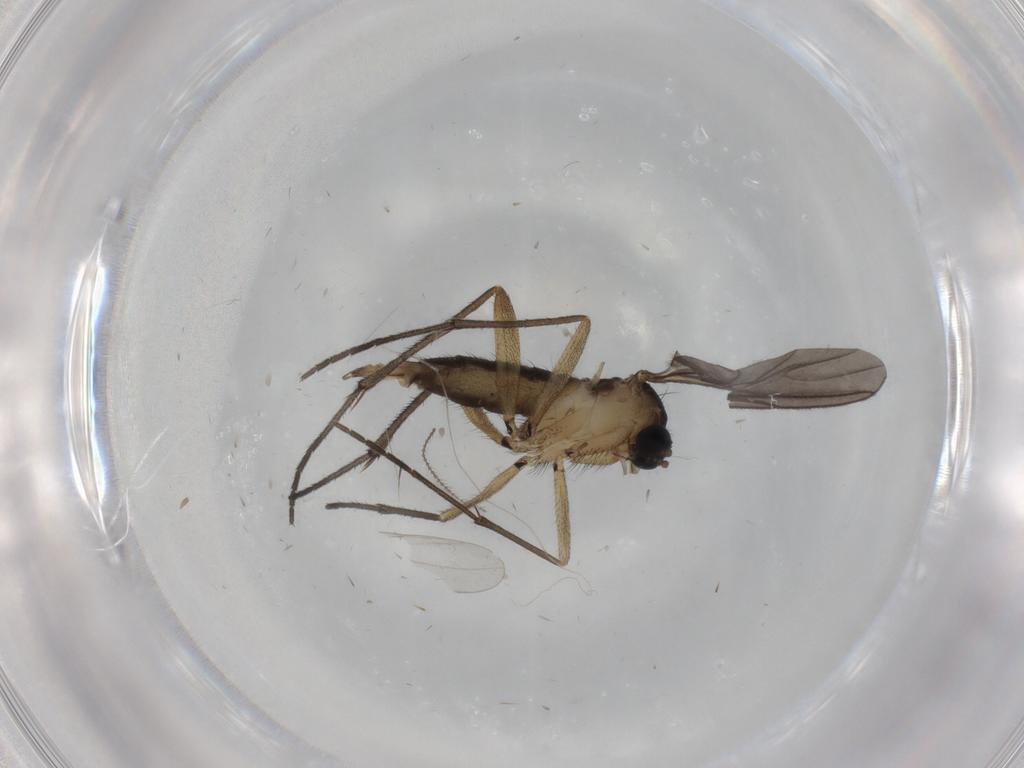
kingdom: Animalia
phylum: Arthropoda
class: Insecta
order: Diptera
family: Sciaridae
